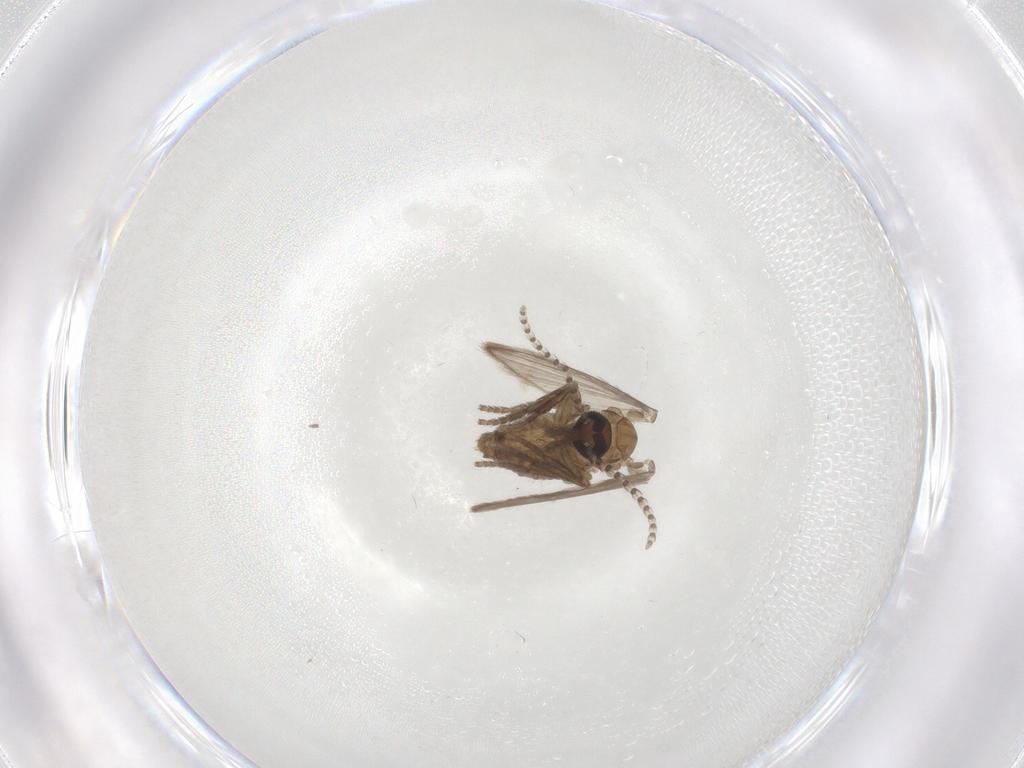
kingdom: Animalia
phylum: Arthropoda
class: Insecta
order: Diptera
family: Psychodidae
